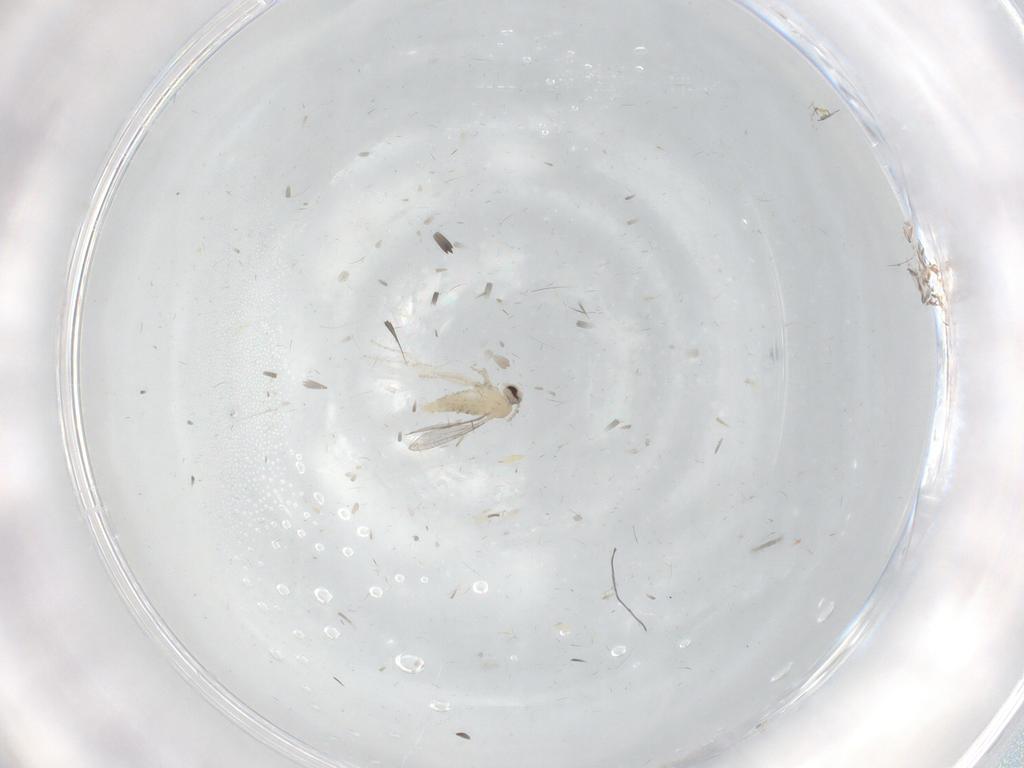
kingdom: Animalia
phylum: Arthropoda
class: Insecta
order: Diptera
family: Cecidomyiidae
